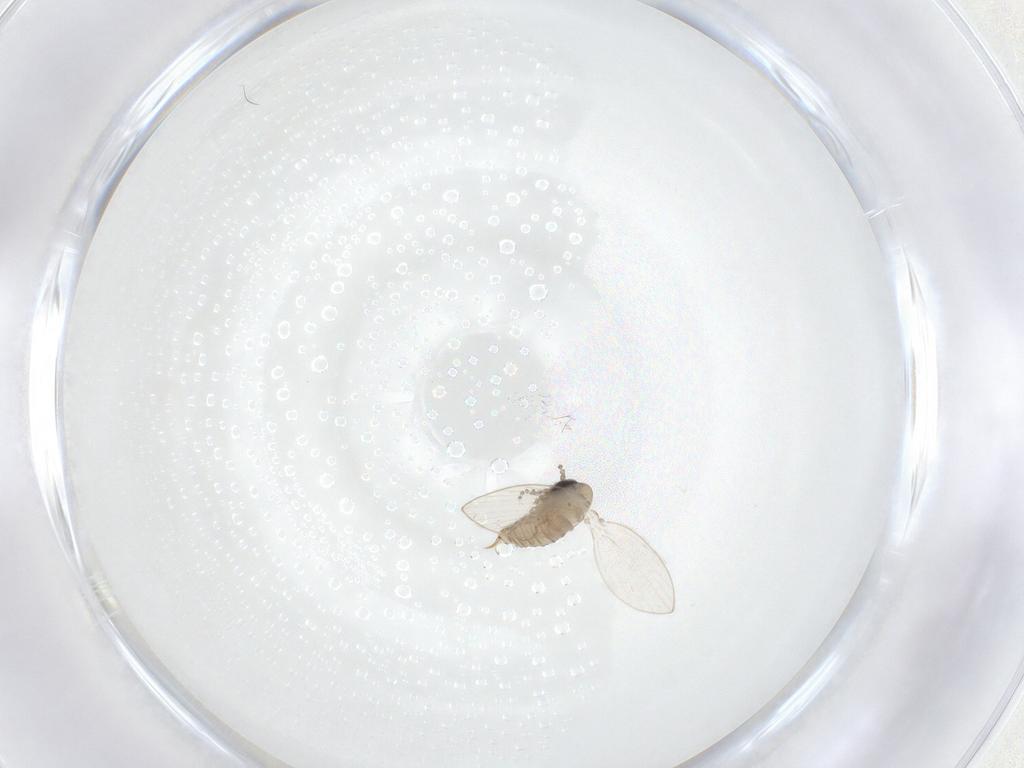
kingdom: Animalia
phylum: Arthropoda
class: Insecta
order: Diptera
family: Psychodidae
